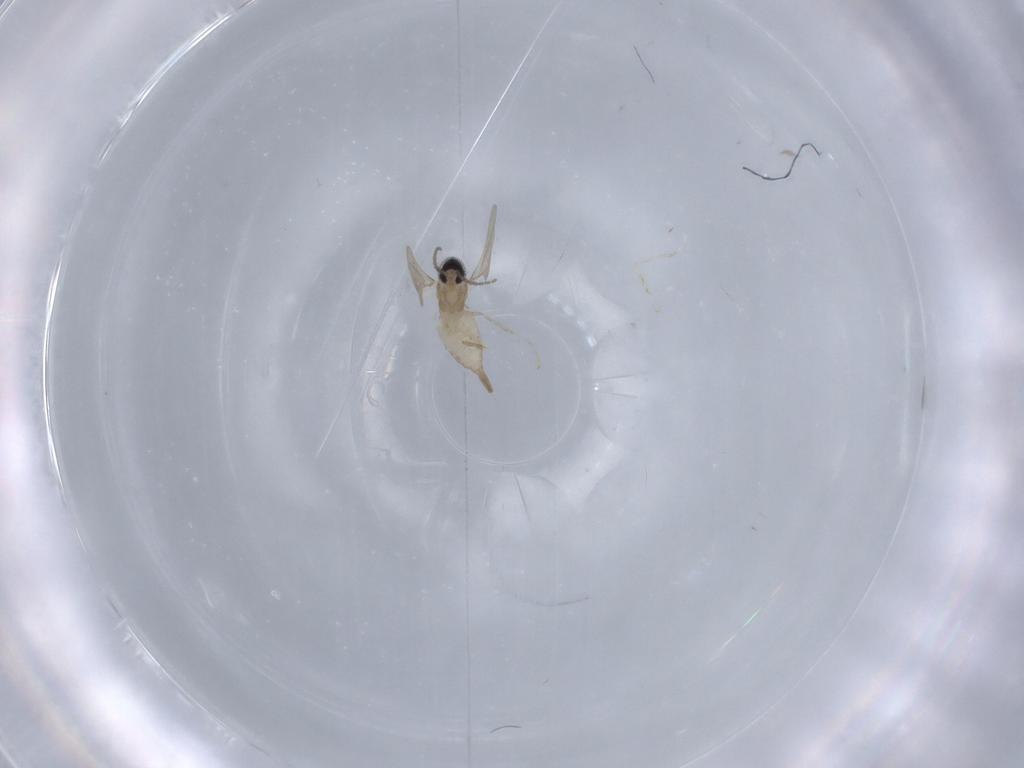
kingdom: Animalia
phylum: Arthropoda
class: Insecta
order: Diptera
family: Cecidomyiidae
